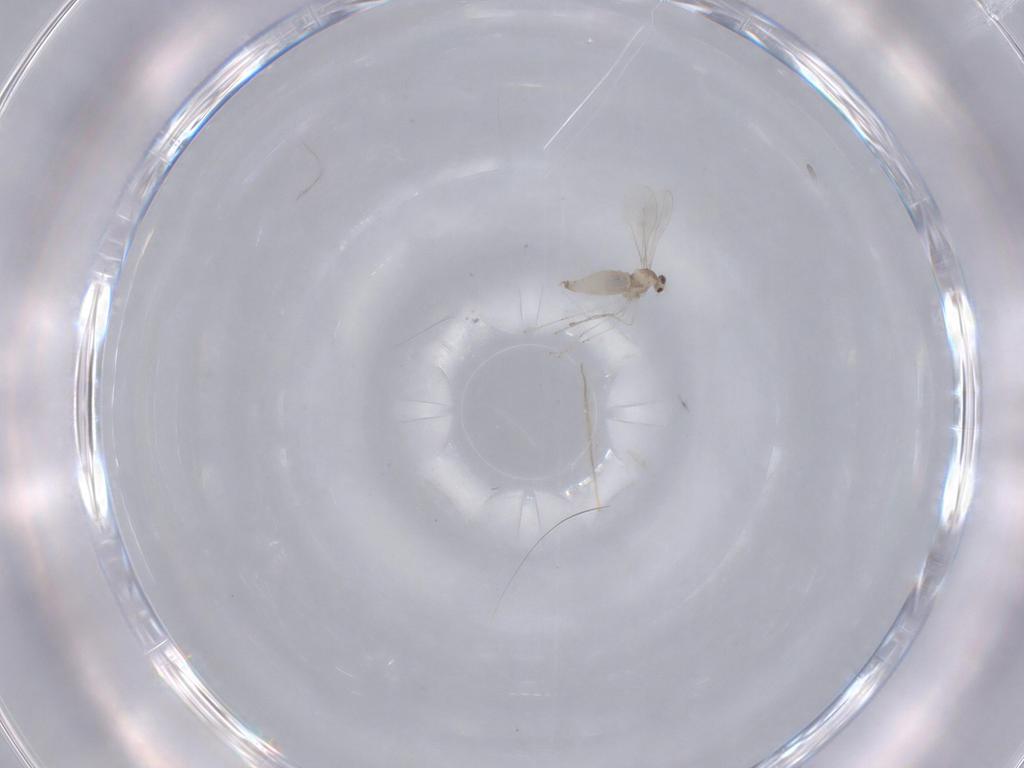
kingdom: Animalia
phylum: Arthropoda
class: Insecta
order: Diptera
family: Cecidomyiidae
